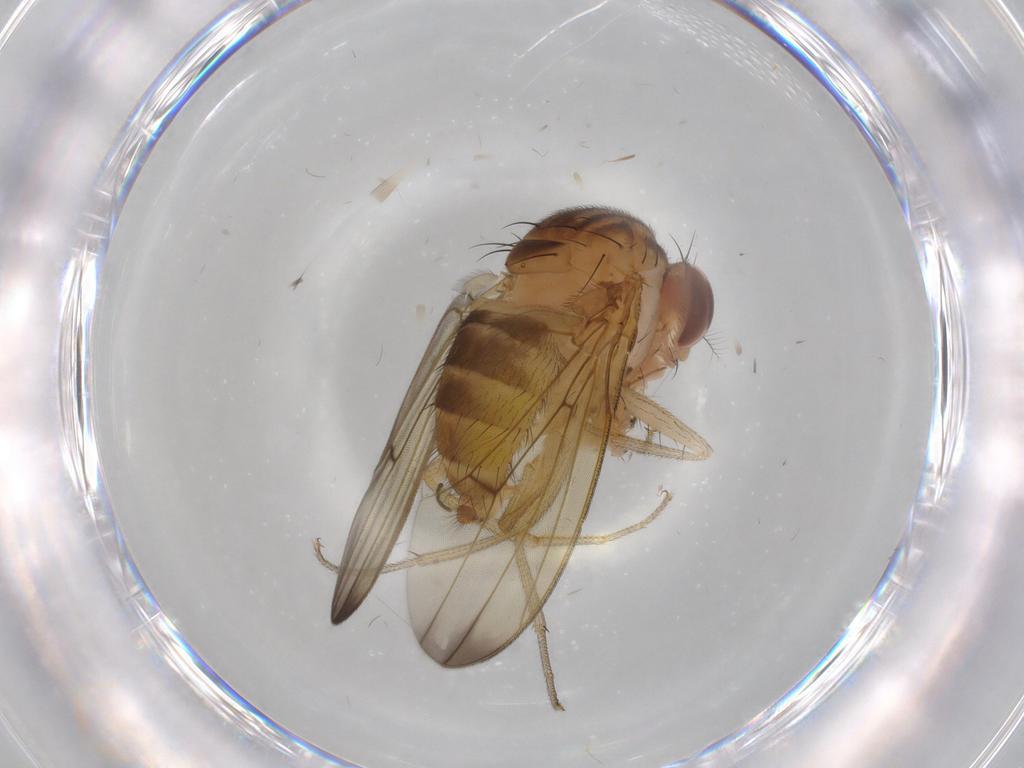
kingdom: Animalia
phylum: Arthropoda
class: Insecta
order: Diptera
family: Drosophilidae
